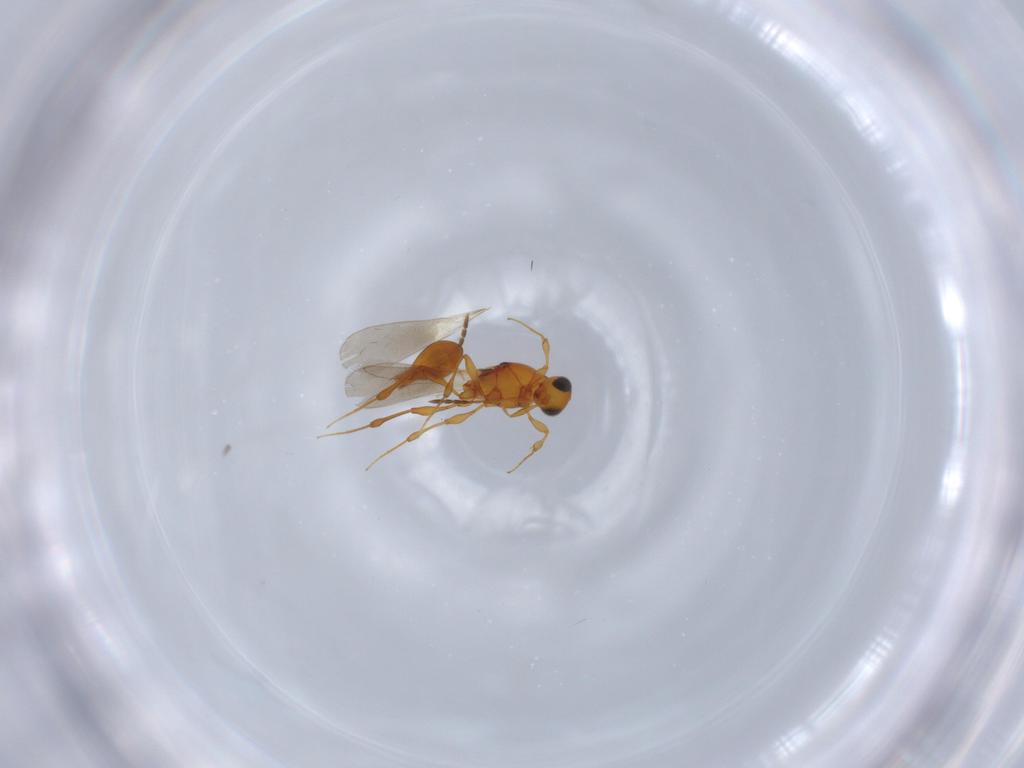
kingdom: Animalia
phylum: Arthropoda
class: Insecta
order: Hymenoptera
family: Platygastridae
